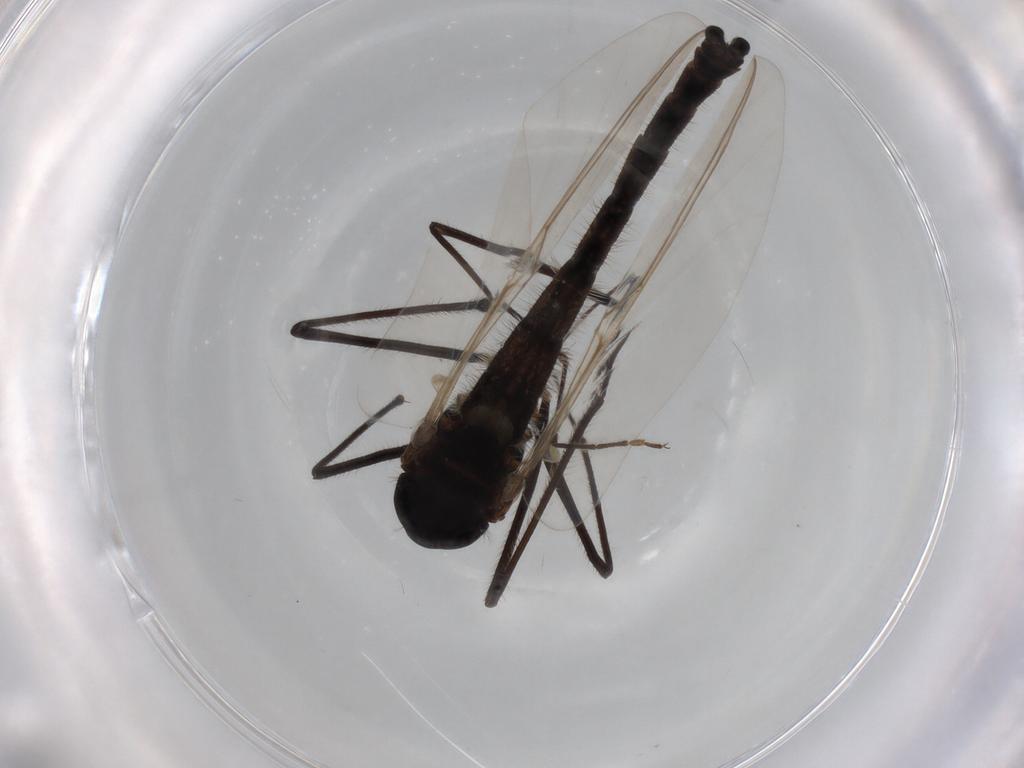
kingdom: Animalia
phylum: Arthropoda
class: Insecta
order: Diptera
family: Chironomidae
